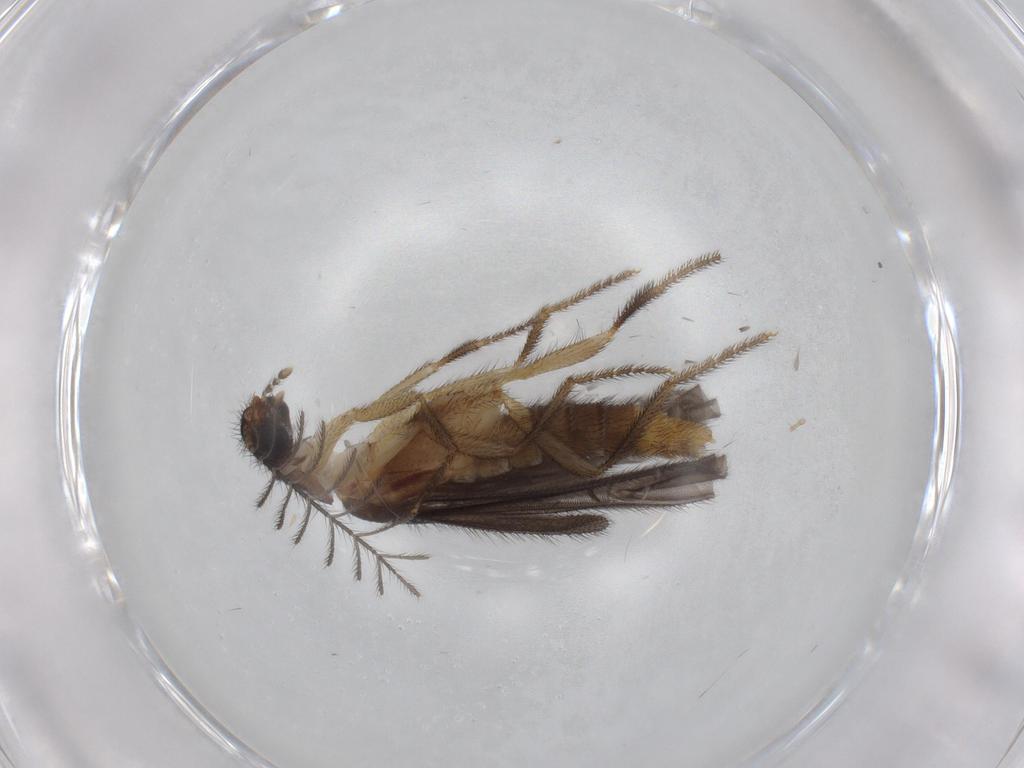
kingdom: Animalia
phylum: Arthropoda
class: Insecta
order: Coleoptera
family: Phengodidae
